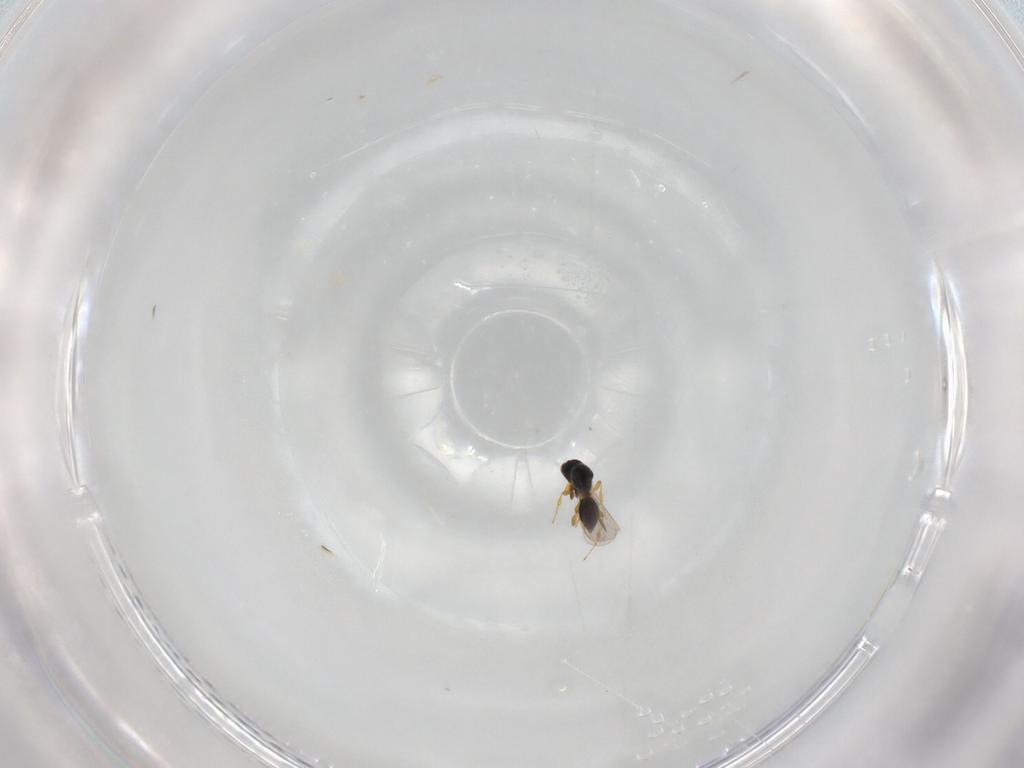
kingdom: Animalia
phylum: Arthropoda
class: Insecta
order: Hymenoptera
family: Platygastridae
